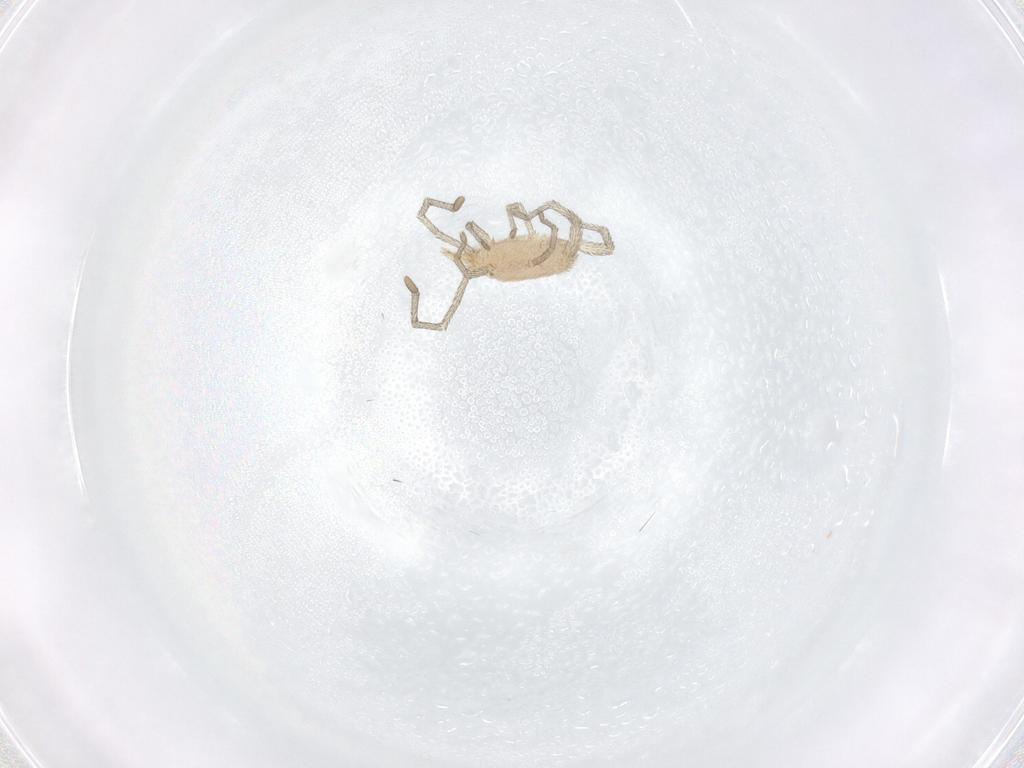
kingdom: Animalia
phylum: Arthropoda
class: Arachnida
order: Trombidiformes
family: Smarididae
